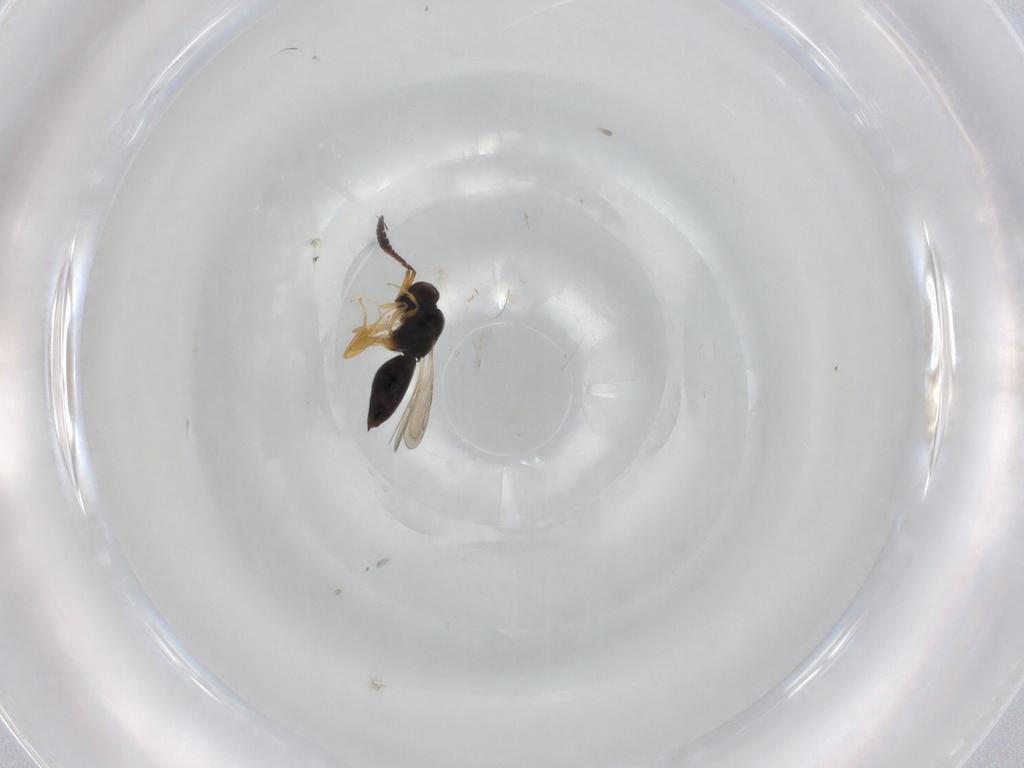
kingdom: Animalia
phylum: Arthropoda
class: Insecta
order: Hymenoptera
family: Ceraphronidae
